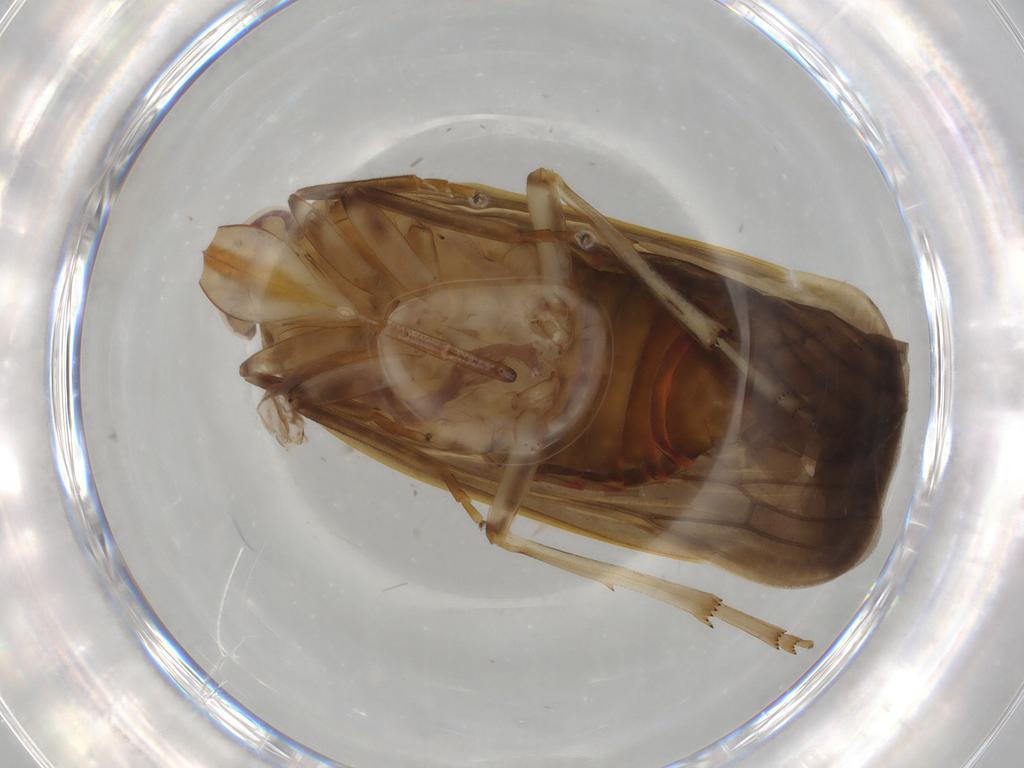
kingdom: Animalia
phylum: Arthropoda
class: Insecta
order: Hemiptera
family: Achilidae
